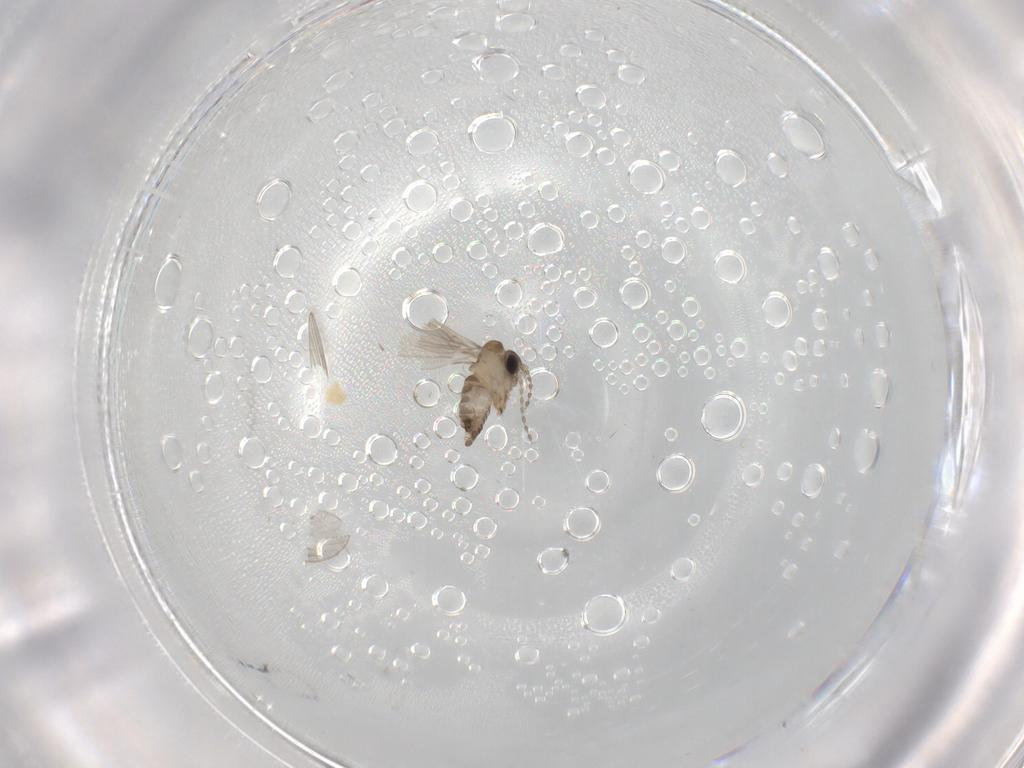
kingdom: Animalia
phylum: Arthropoda
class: Insecta
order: Diptera
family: Psychodidae
